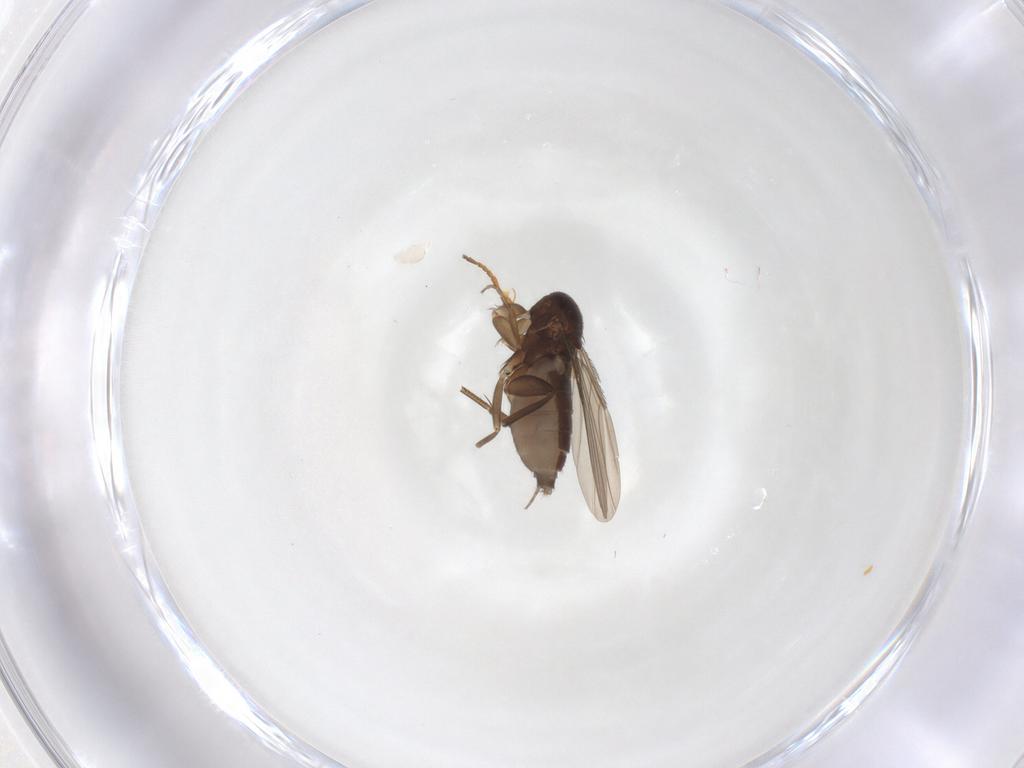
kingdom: Animalia
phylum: Arthropoda
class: Insecta
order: Diptera
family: Phoridae
